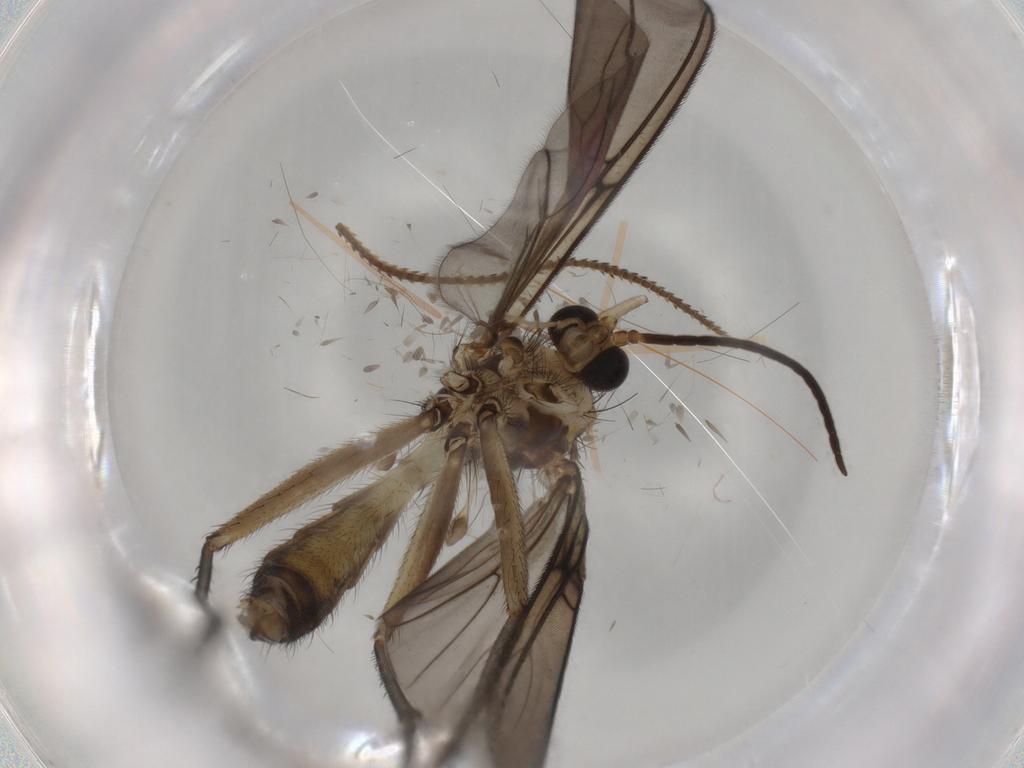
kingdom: Animalia
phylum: Arthropoda
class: Insecta
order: Diptera
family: Mycetophilidae
